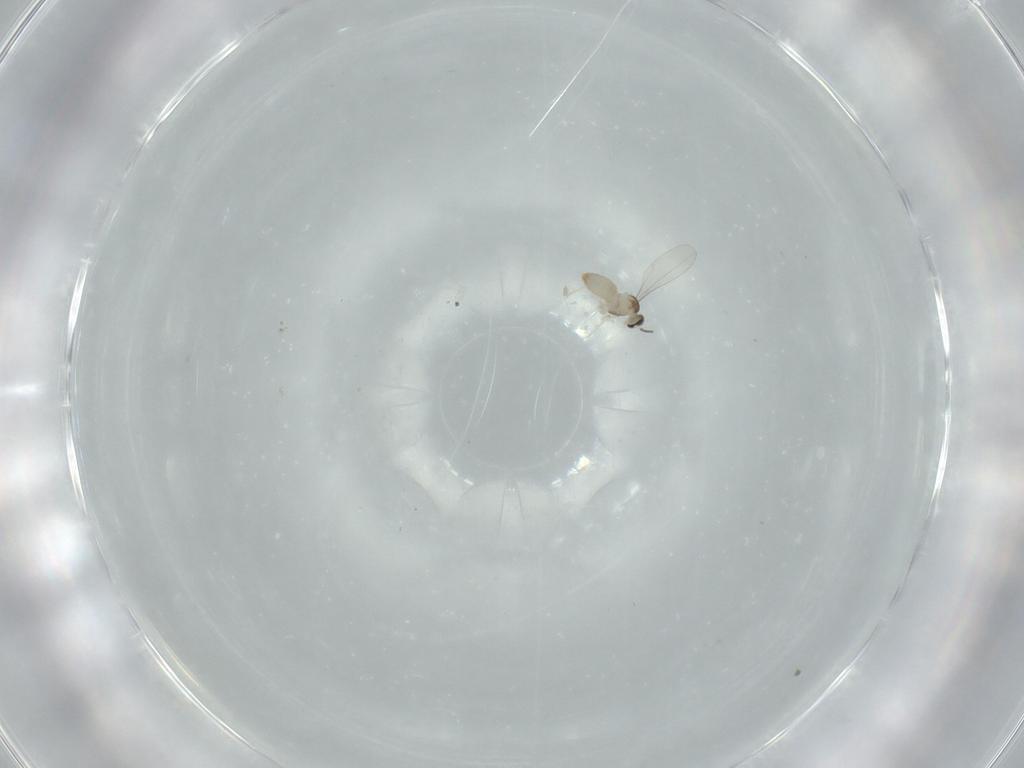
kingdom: Animalia
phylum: Arthropoda
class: Insecta
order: Diptera
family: Cecidomyiidae
